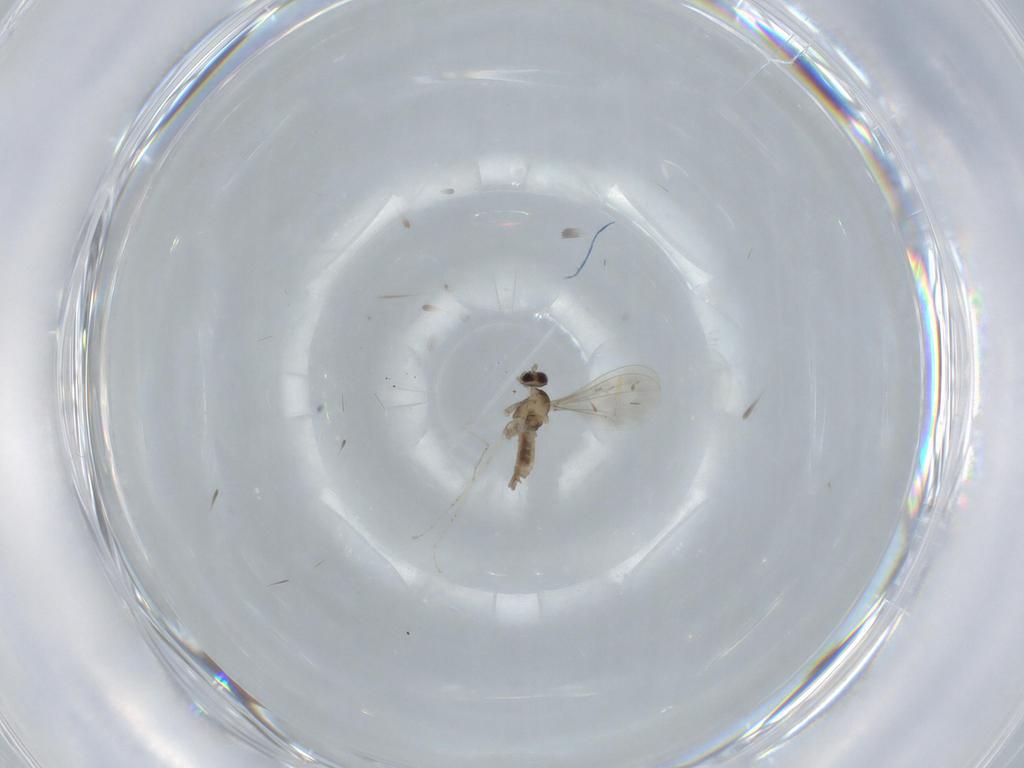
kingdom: Animalia
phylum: Arthropoda
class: Insecta
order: Diptera
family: Cecidomyiidae
